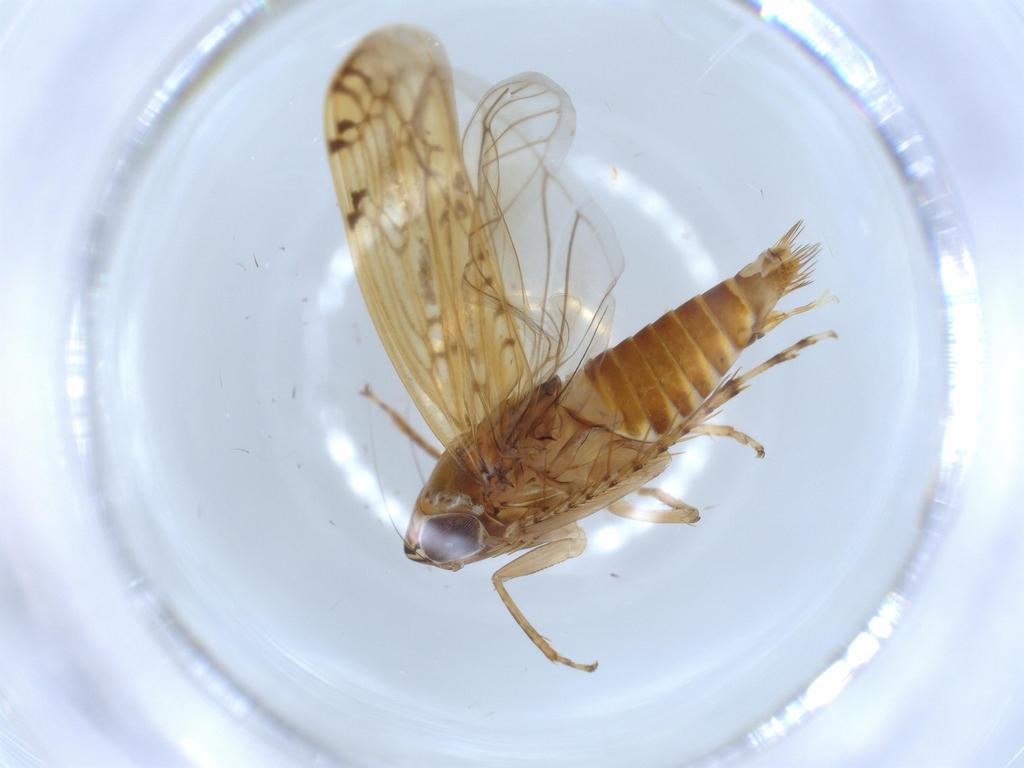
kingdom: Animalia
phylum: Arthropoda
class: Insecta
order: Hemiptera
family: Cicadellidae
